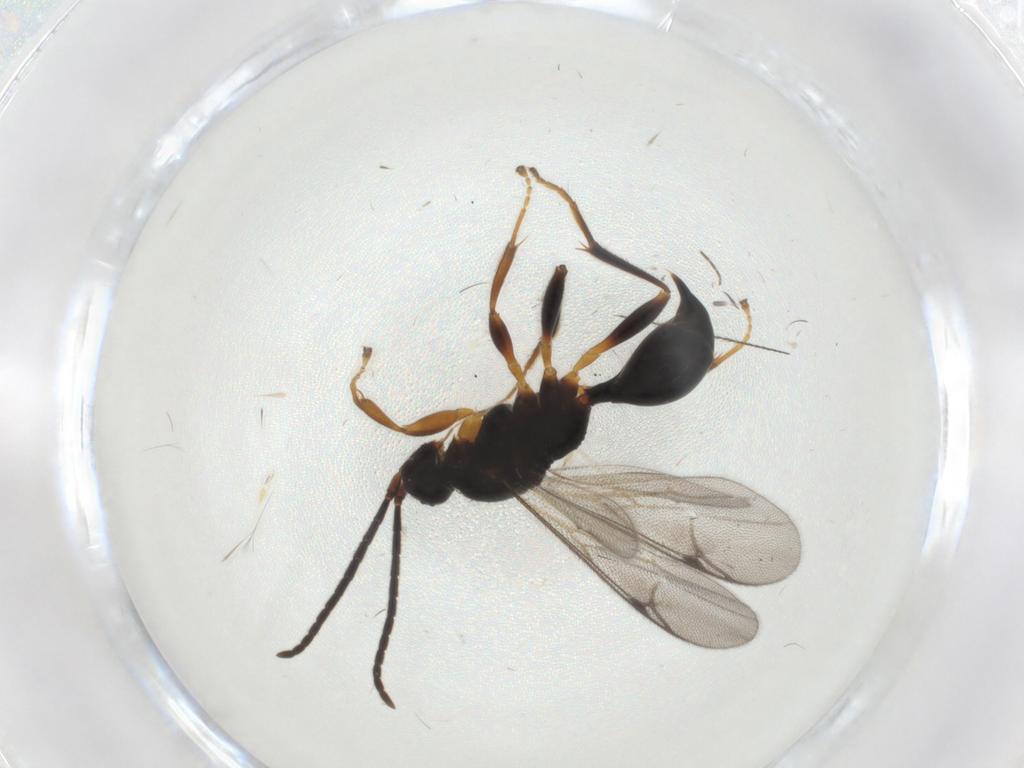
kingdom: Animalia
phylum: Arthropoda
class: Insecta
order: Hymenoptera
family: Proctotrupidae
